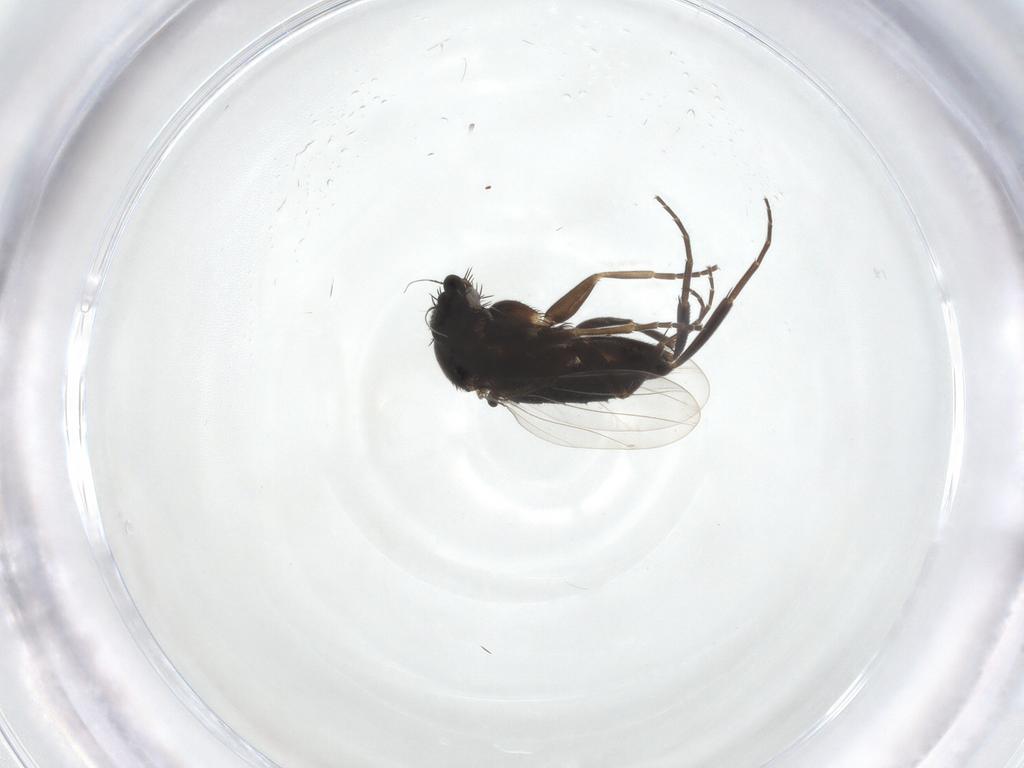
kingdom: Animalia
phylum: Arthropoda
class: Insecta
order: Diptera
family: Phoridae
